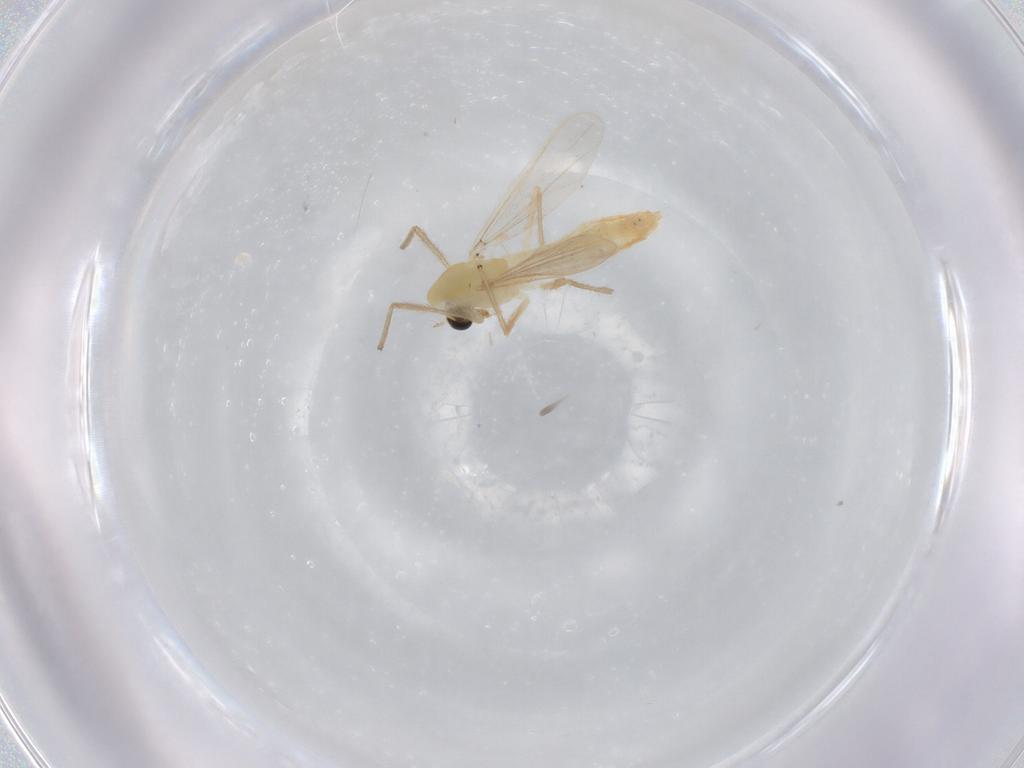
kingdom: Animalia
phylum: Arthropoda
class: Insecta
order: Diptera
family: Chironomidae
